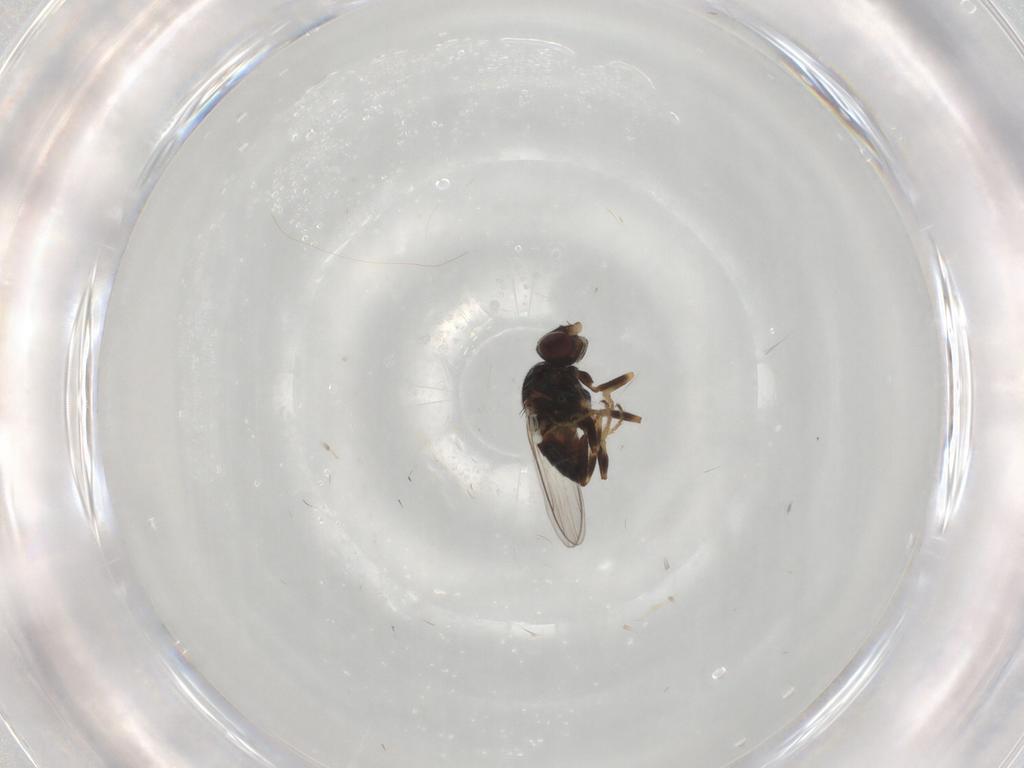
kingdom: Animalia
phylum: Arthropoda
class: Insecta
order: Diptera
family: Chloropidae
